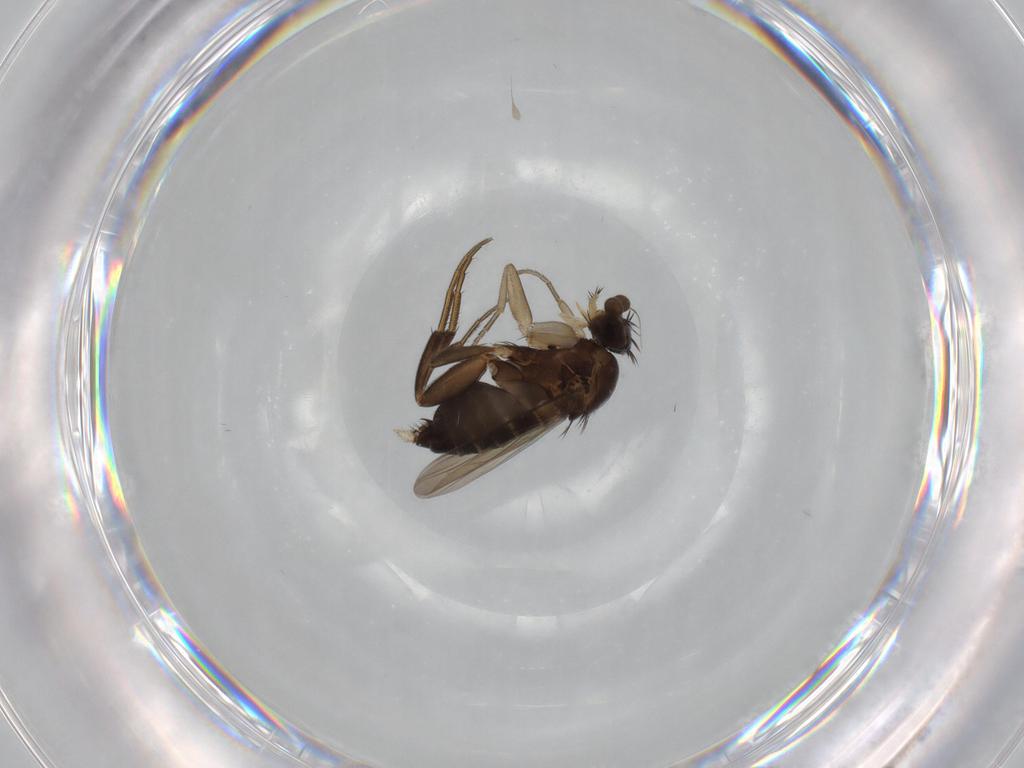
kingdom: Animalia
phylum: Arthropoda
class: Insecta
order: Diptera
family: Phoridae
